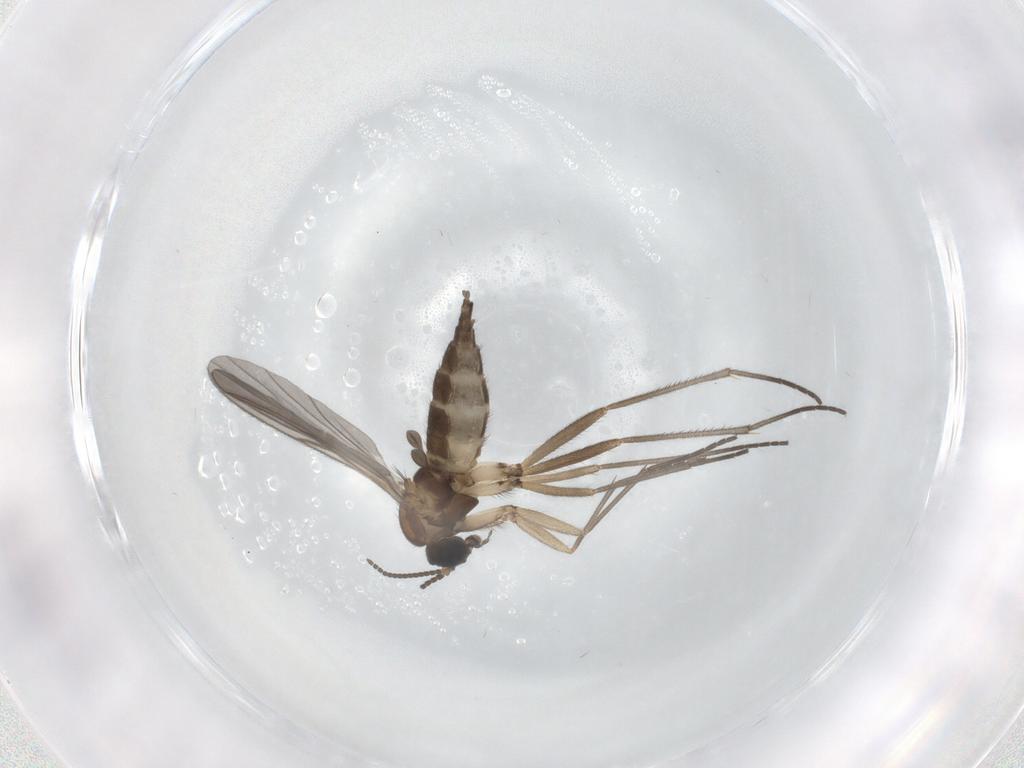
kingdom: Animalia
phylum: Arthropoda
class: Insecta
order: Diptera
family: Sciaridae
